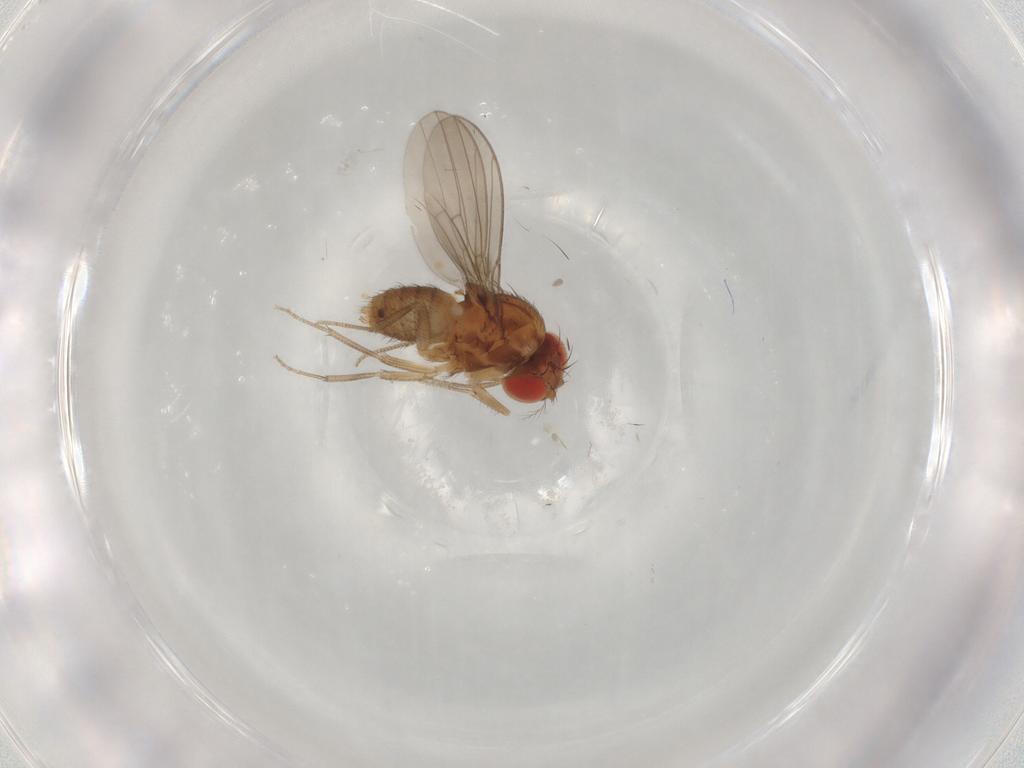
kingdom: Animalia
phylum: Arthropoda
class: Insecta
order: Diptera
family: Drosophilidae
